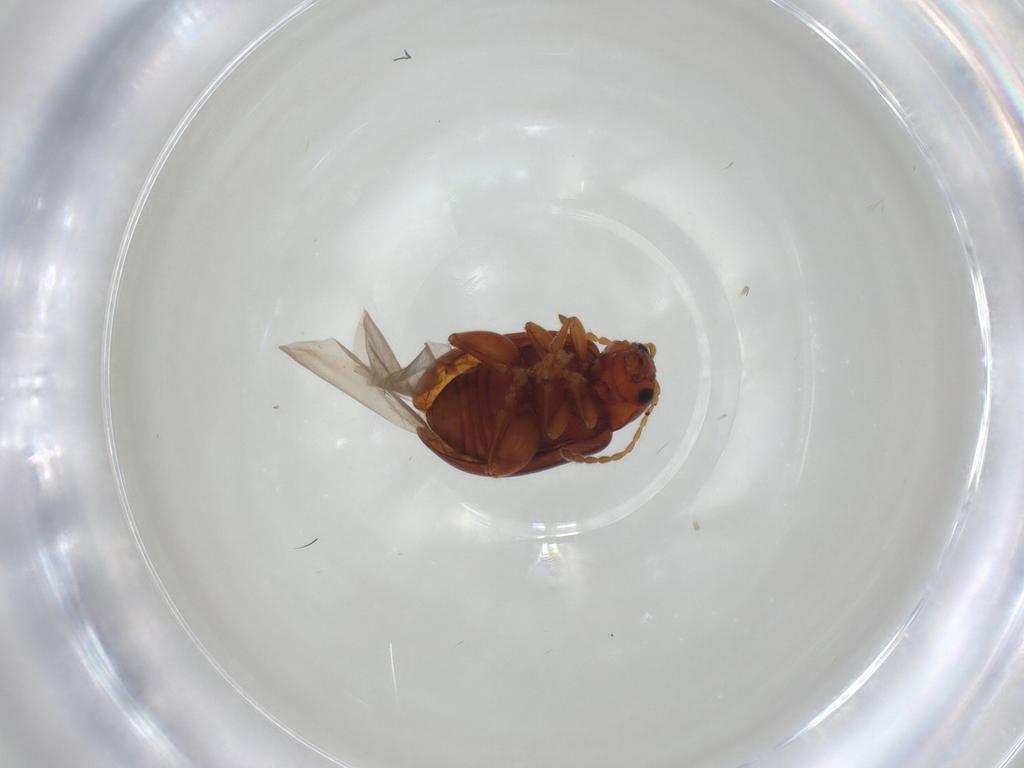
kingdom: Animalia
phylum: Arthropoda
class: Insecta
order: Coleoptera
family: Chrysomelidae
